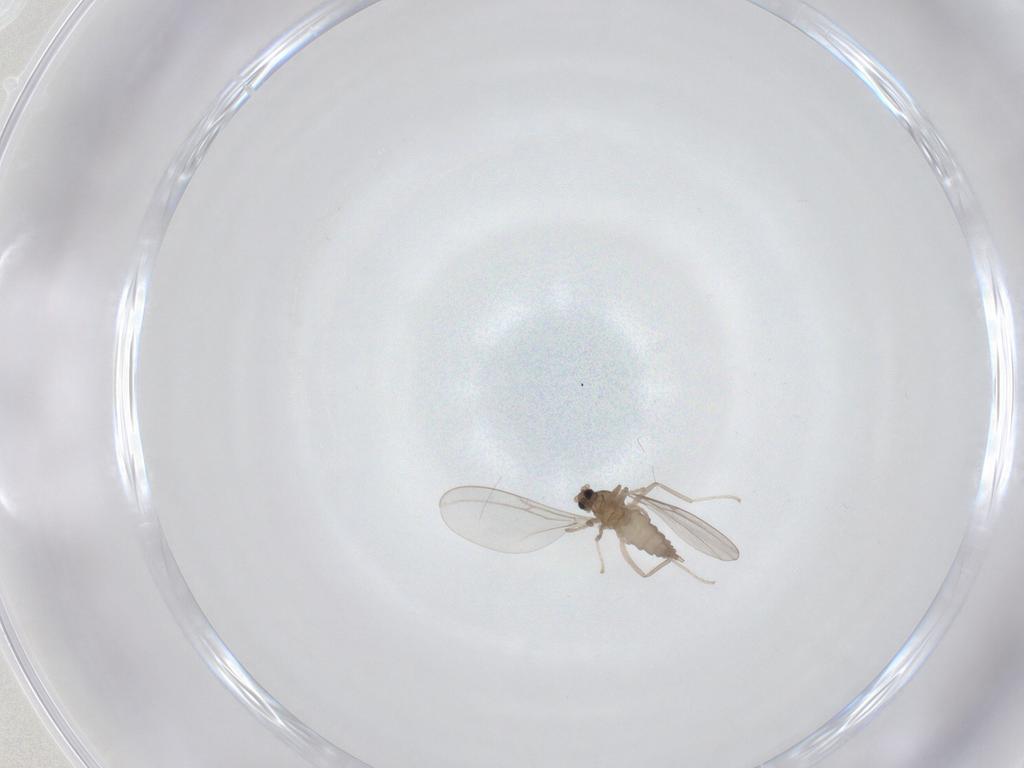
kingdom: Animalia
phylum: Arthropoda
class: Insecta
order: Diptera
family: Cecidomyiidae
